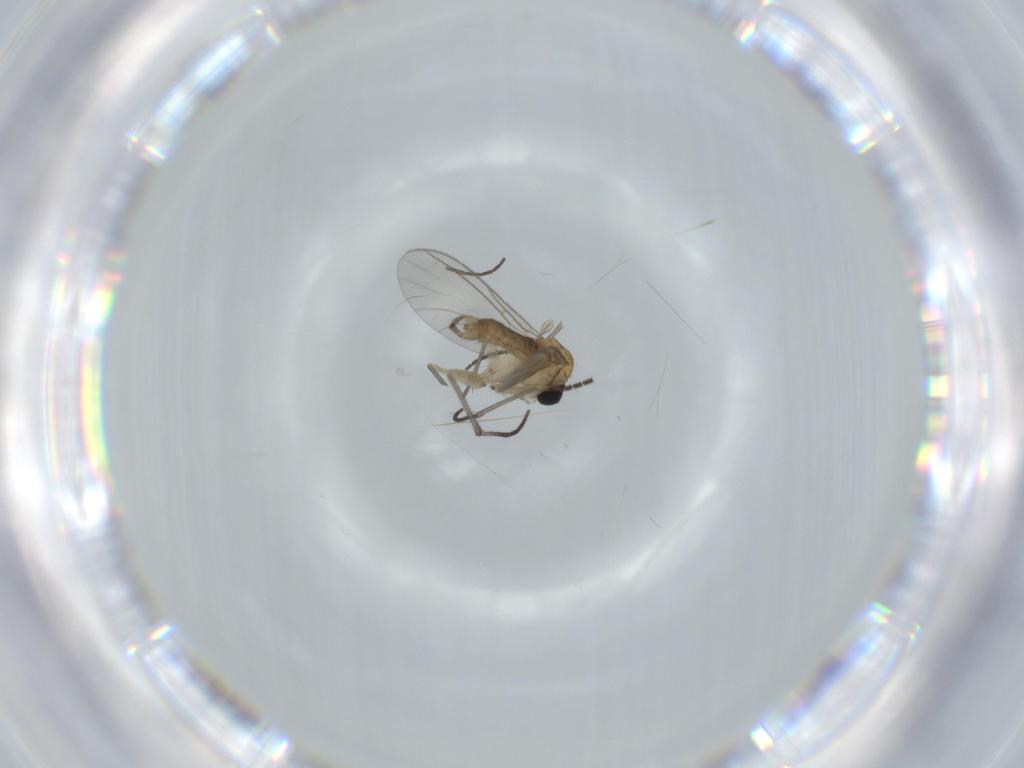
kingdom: Animalia
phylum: Arthropoda
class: Insecta
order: Diptera
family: Sciaridae
